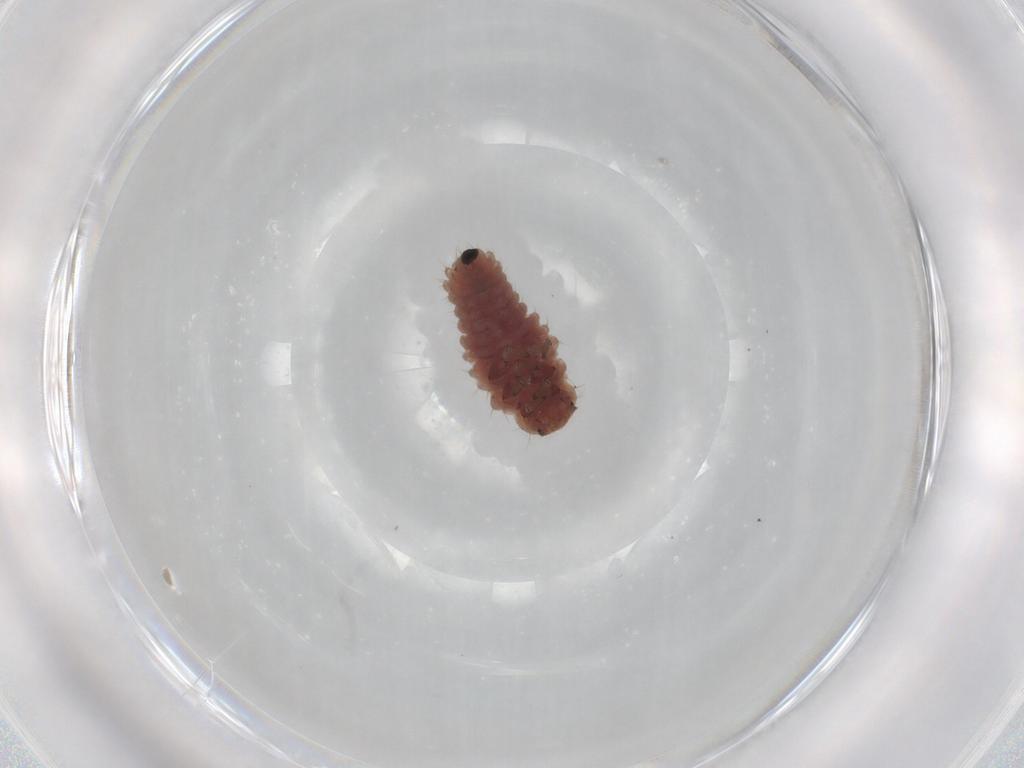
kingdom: Animalia
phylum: Arthropoda
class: Insecta
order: Coleoptera
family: Coccinellidae
